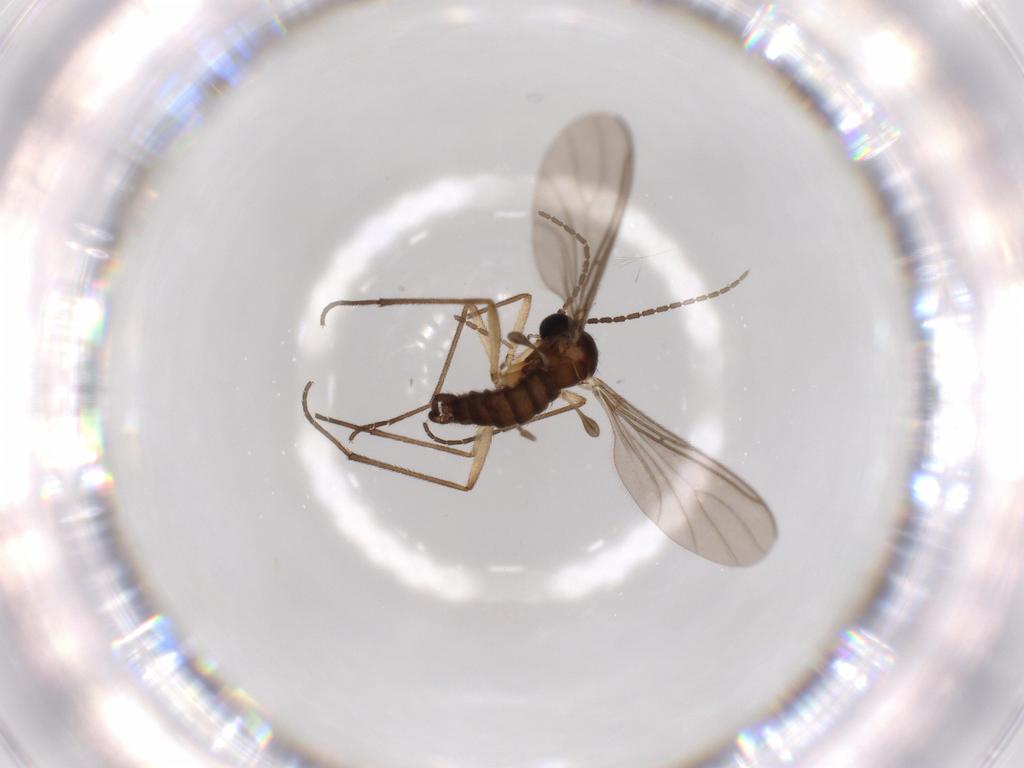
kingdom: Animalia
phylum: Arthropoda
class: Insecta
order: Diptera
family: Sciaridae
